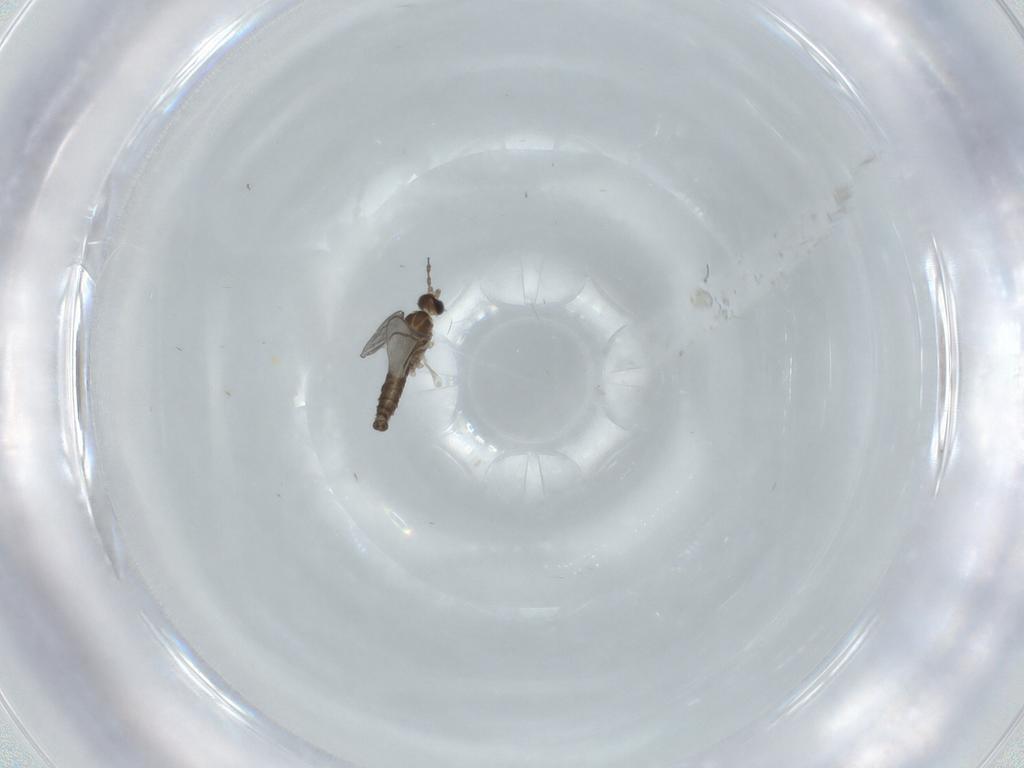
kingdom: Animalia
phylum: Arthropoda
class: Insecta
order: Diptera
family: Cecidomyiidae
